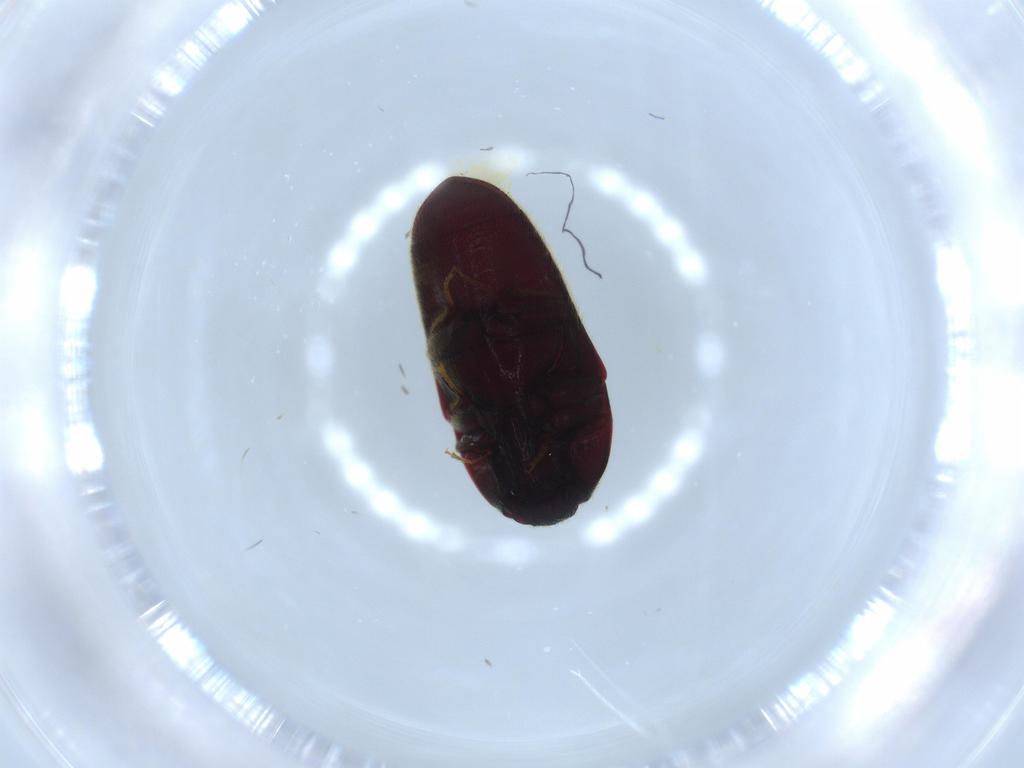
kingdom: Animalia
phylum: Arthropoda
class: Insecta
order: Coleoptera
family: Throscidae
